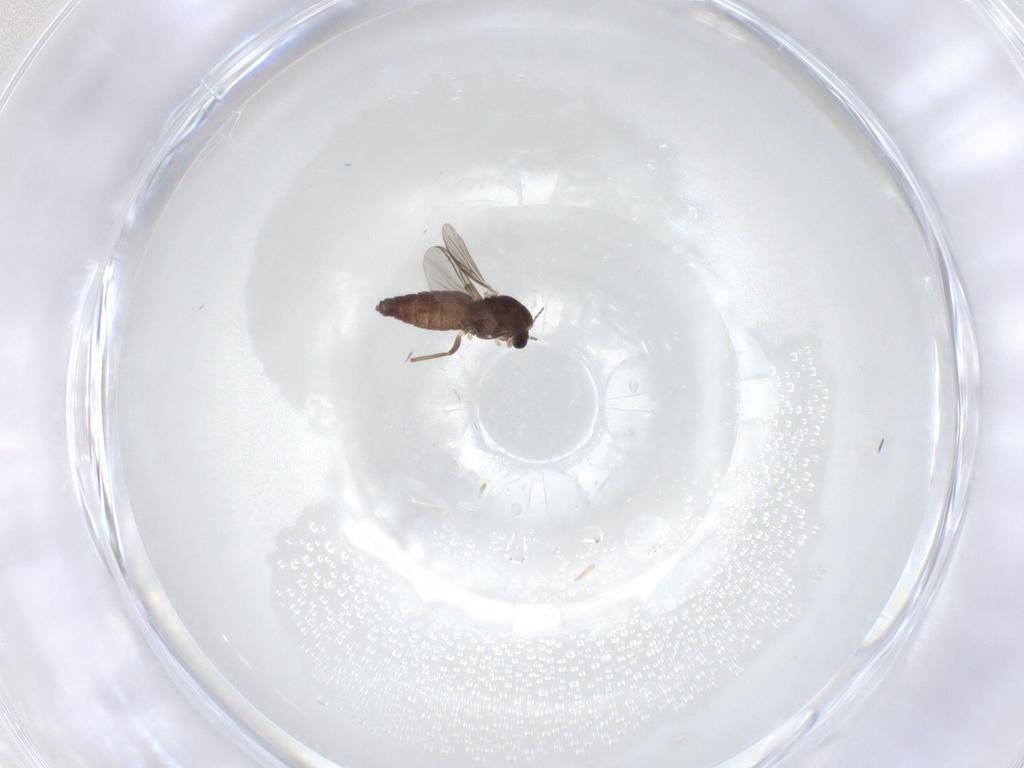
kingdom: Animalia
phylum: Arthropoda
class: Insecta
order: Diptera
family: Chironomidae
